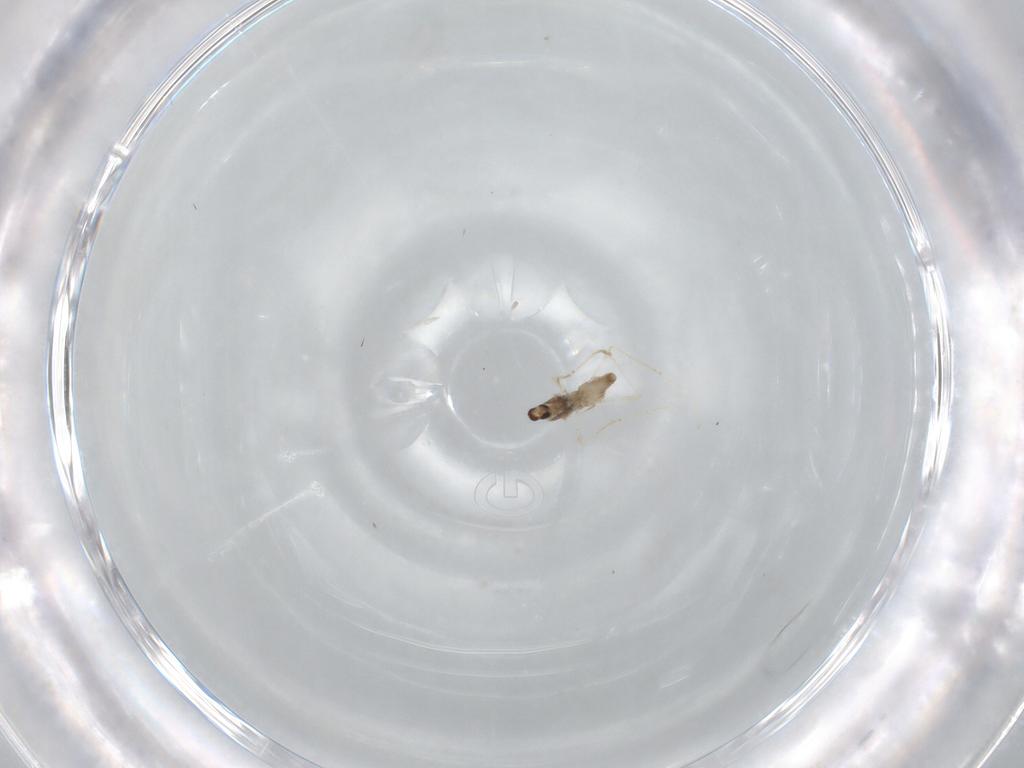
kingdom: Animalia
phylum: Arthropoda
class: Insecta
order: Diptera
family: Cecidomyiidae
